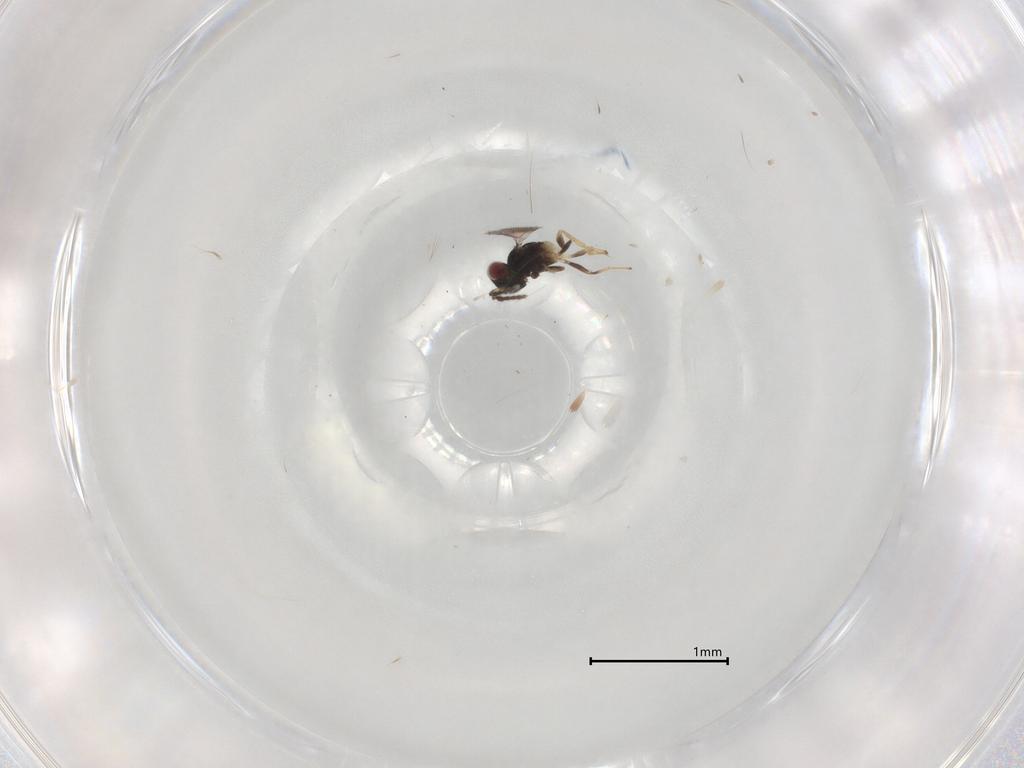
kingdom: Animalia
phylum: Arthropoda
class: Insecta
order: Hymenoptera
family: Eulophidae
